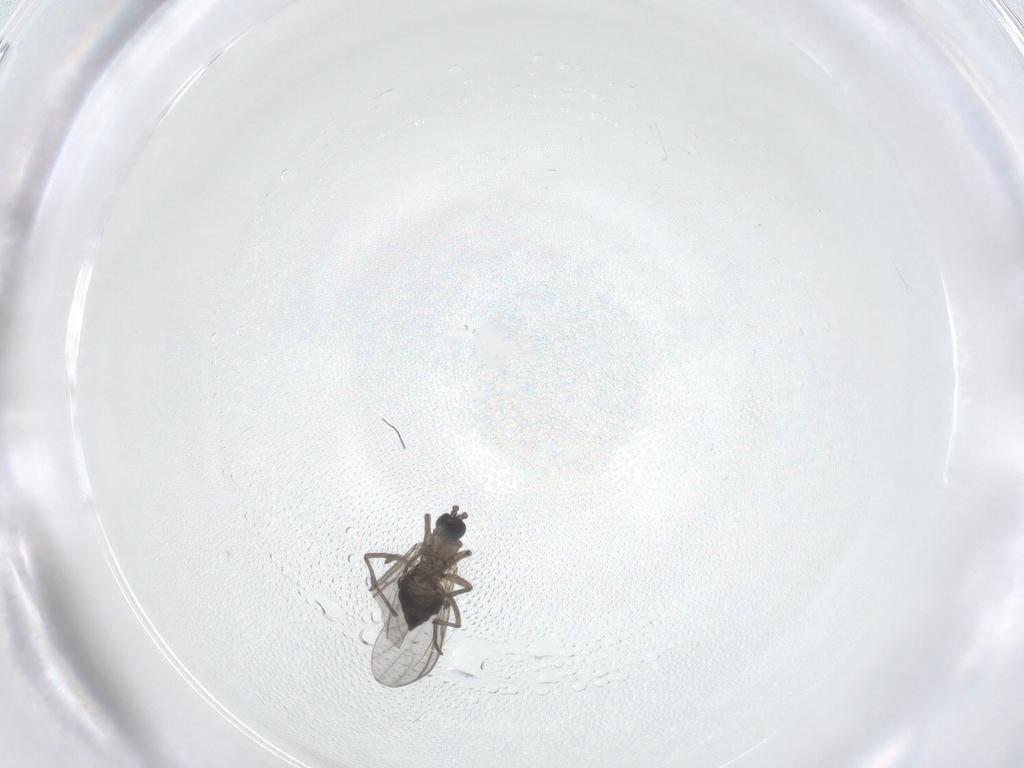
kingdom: Animalia
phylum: Arthropoda
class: Insecta
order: Diptera
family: Sciaridae
